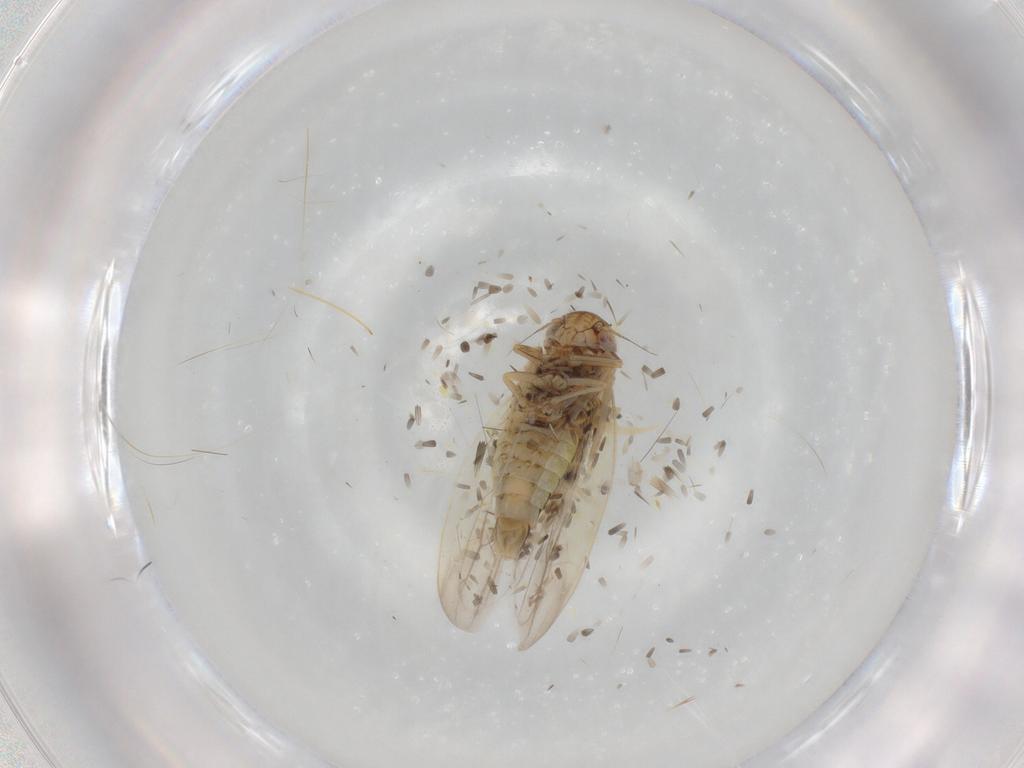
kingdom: Animalia
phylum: Arthropoda
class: Insecta
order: Hemiptera
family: Cicadellidae
